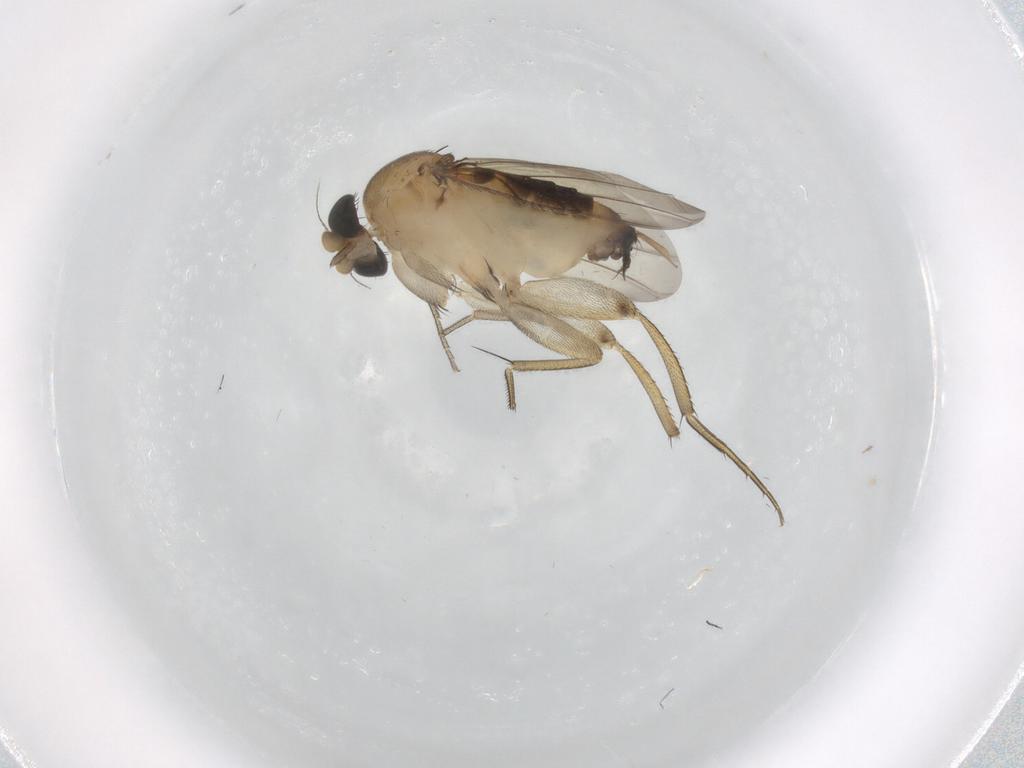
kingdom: Animalia
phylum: Arthropoda
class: Insecta
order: Diptera
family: Phoridae
